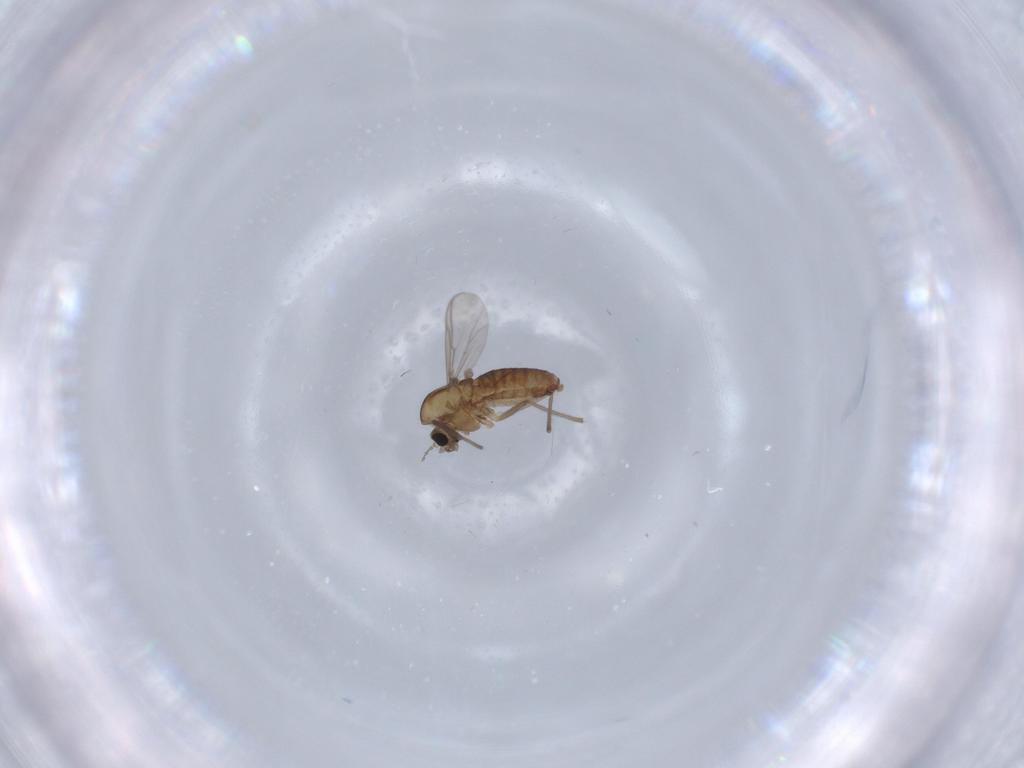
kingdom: Animalia
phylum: Arthropoda
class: Insecta
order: Diptera
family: Chironomidae
